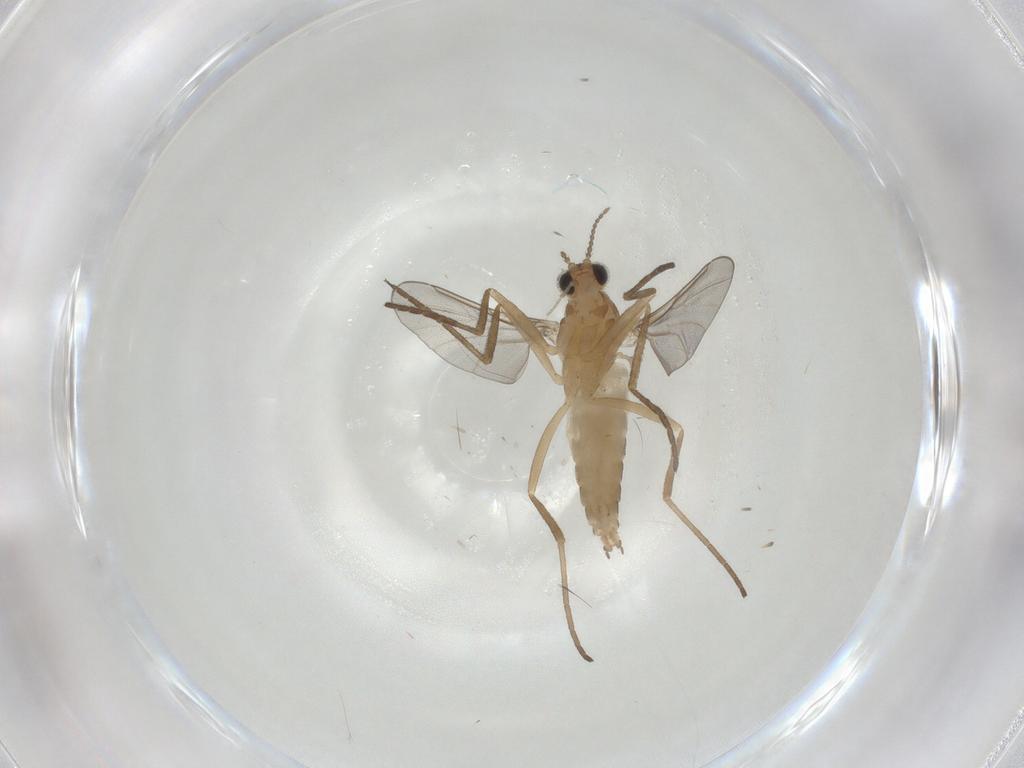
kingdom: Animalia
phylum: Arthropoda
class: Insecta
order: Diptera
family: Cecidomyiidae
